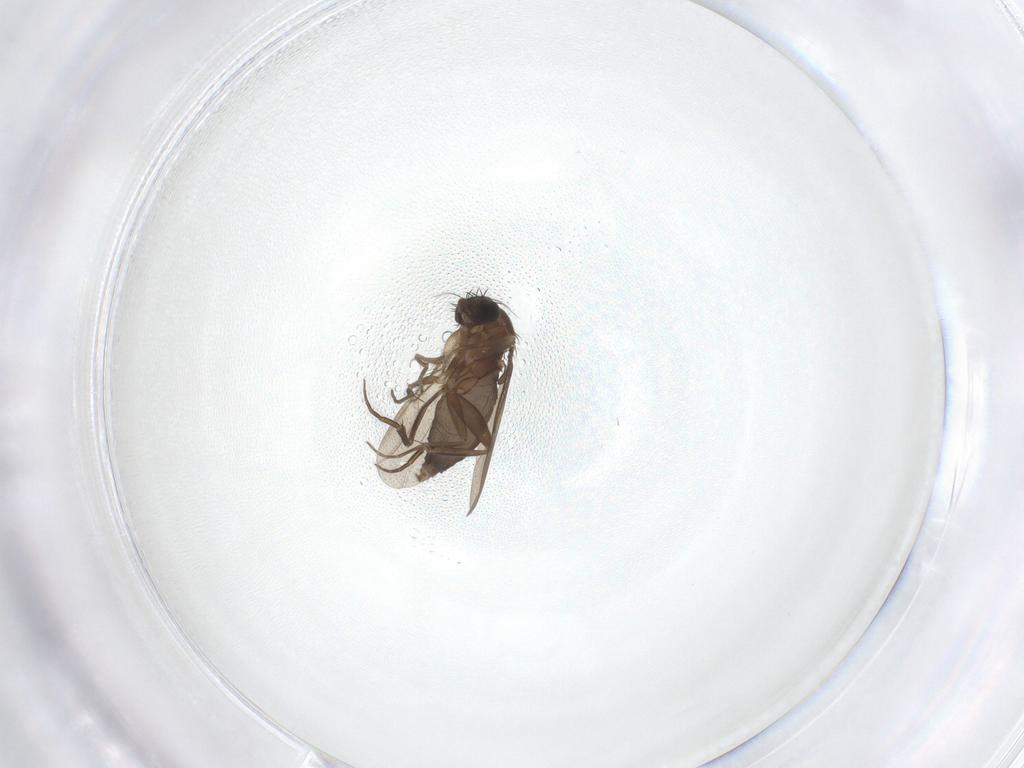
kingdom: Animalia
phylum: Arthropoda
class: Insecta
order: Diptera
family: Phoridae
